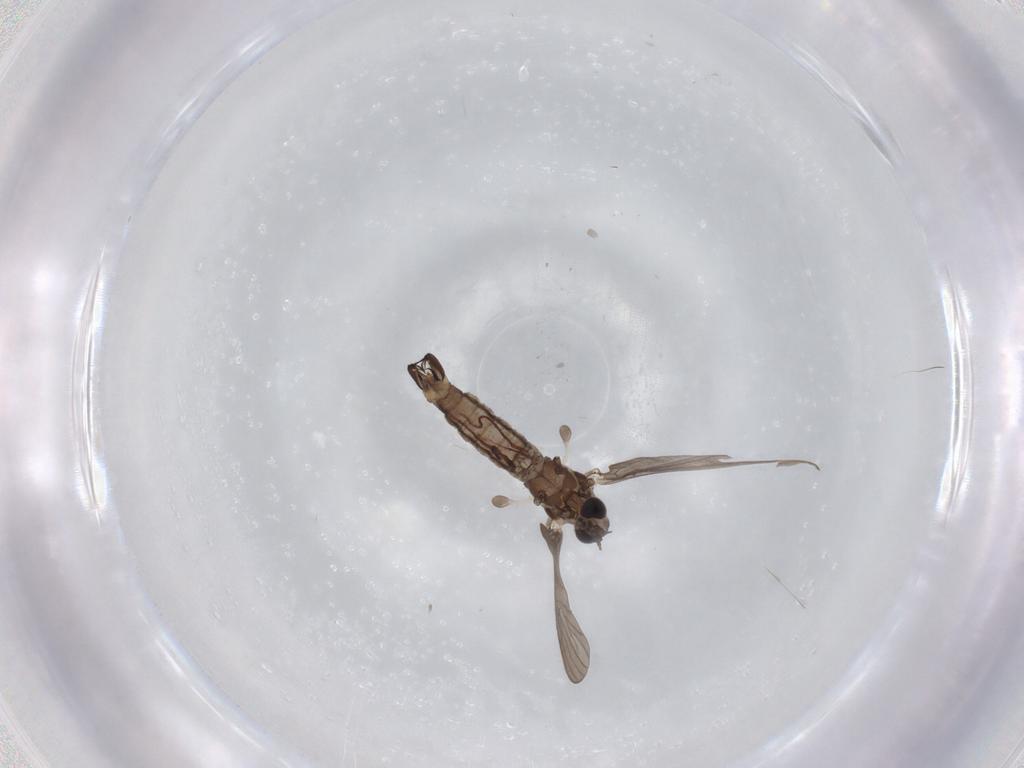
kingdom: Animalia
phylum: Arthropoda
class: Insecta
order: Diptera
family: Limoniidae
